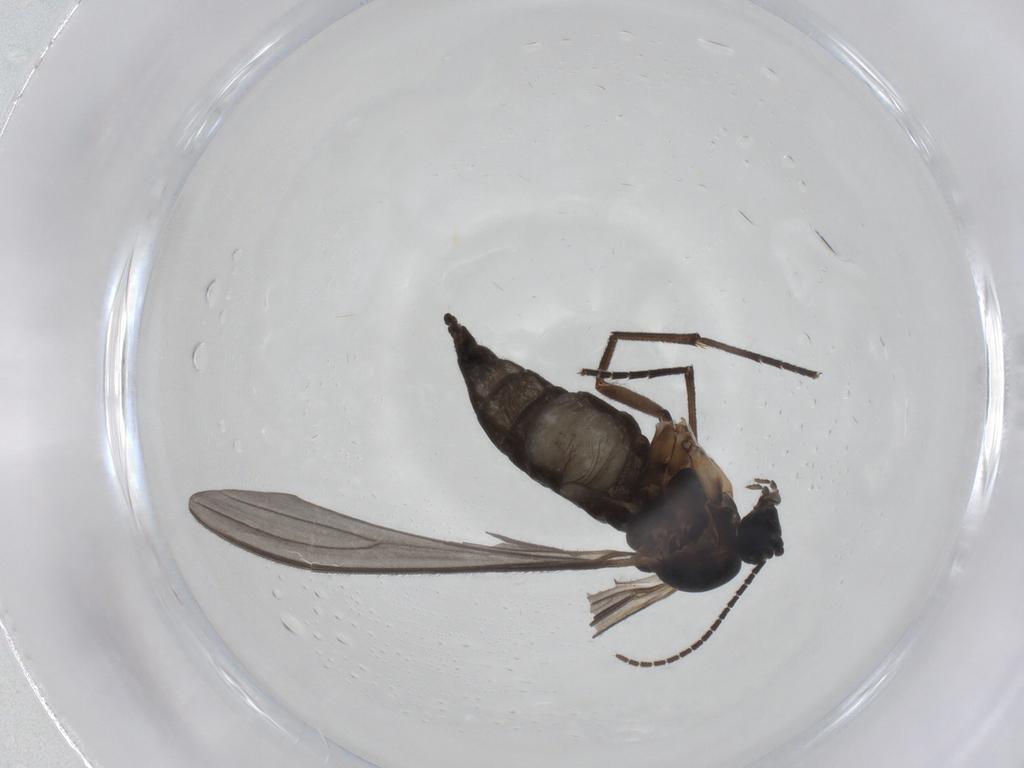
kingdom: Animalia
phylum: Arthropoda
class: Insecta
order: Diptera
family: Sciaridae
